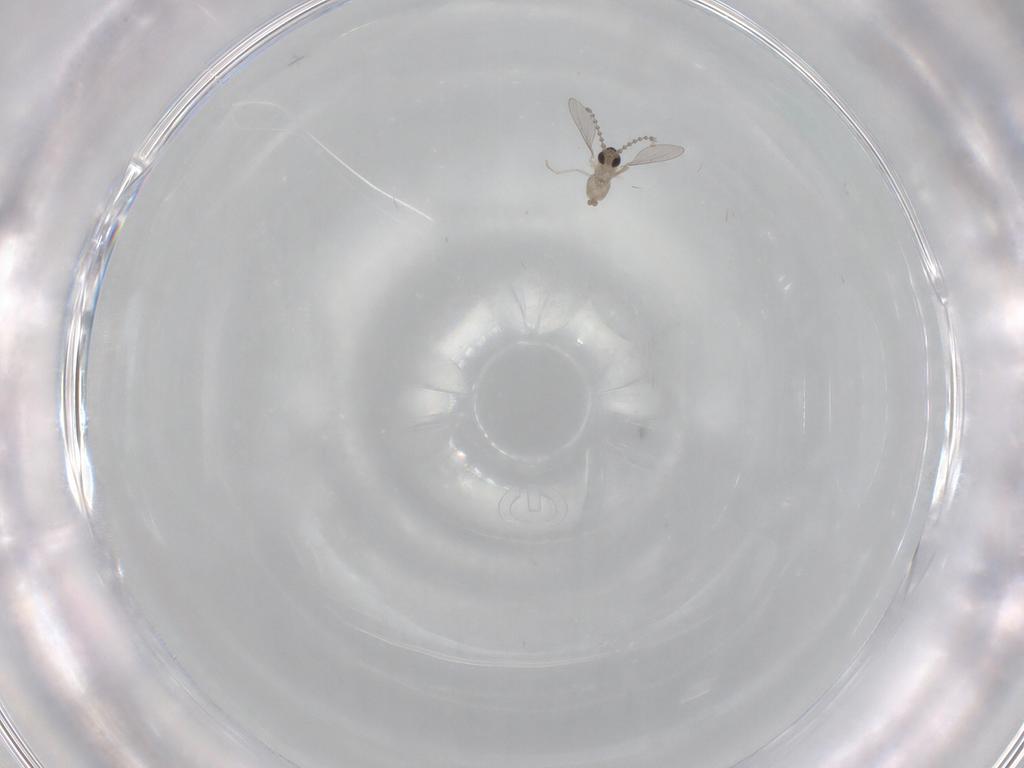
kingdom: Animalia
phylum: Arthropoda
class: Insecta
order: Diptera
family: Cecidomyiidae
